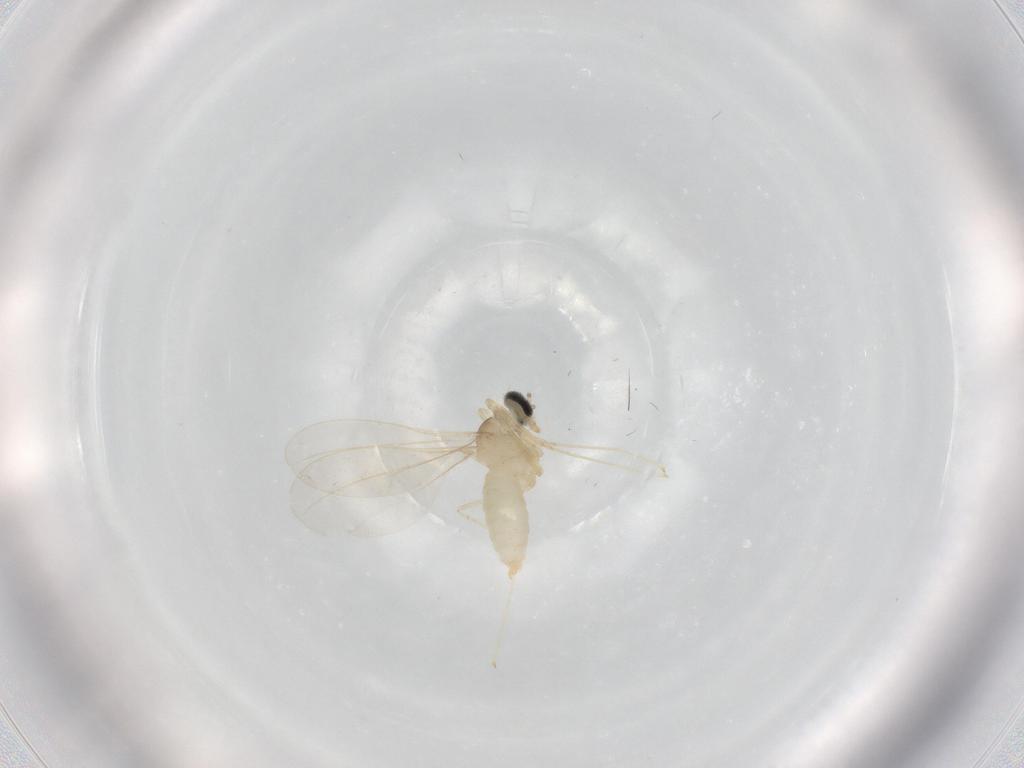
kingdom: Animalia
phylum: Arthropoda
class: Insecta
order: Diptera
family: Cecidomyiidae
